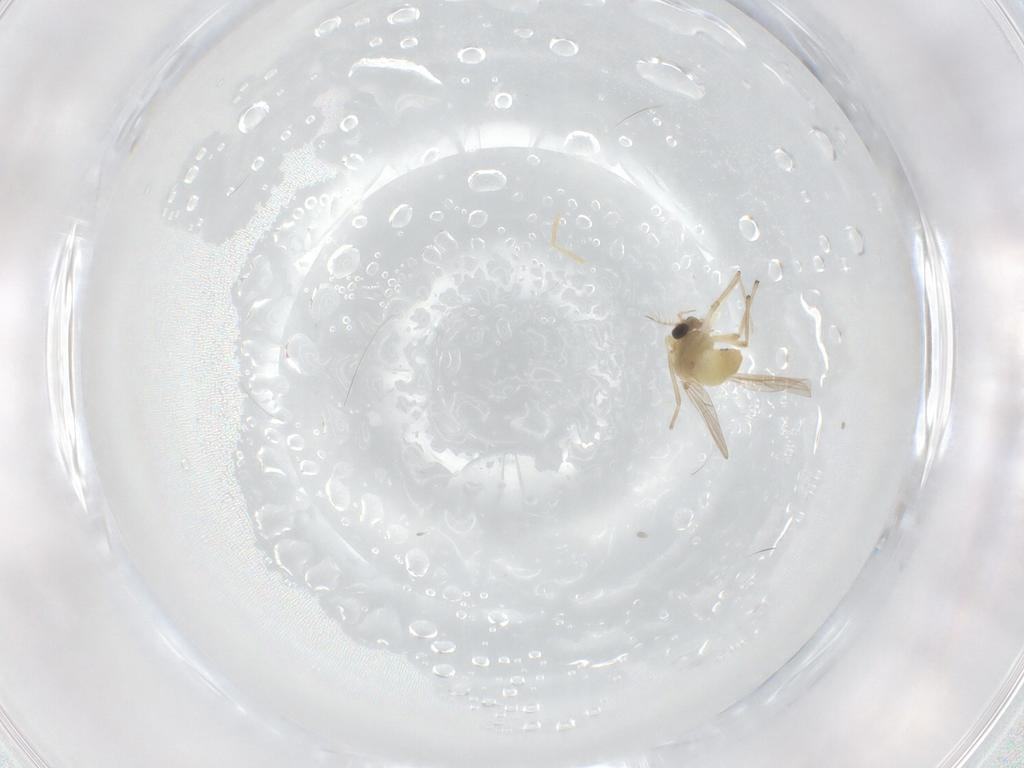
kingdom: Animalia
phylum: Arthropoda
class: Insecta
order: Diptera
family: Chironomidae
